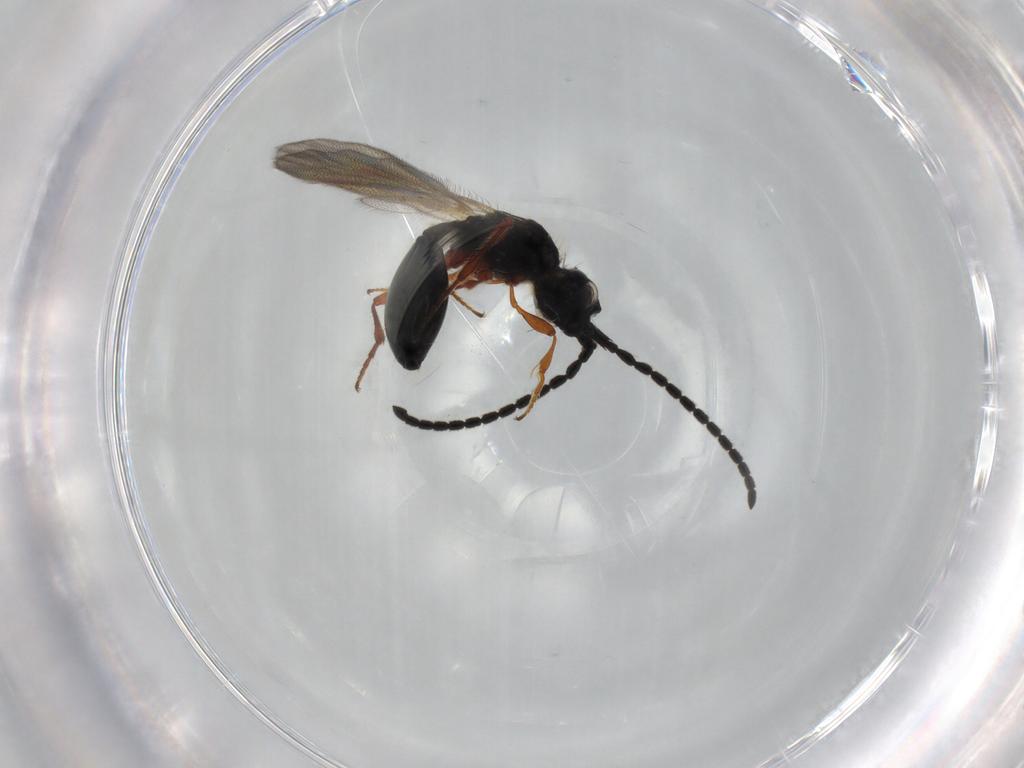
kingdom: Animalia
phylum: Arthropoda
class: Insecta
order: Hymenoptera
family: Diapriidae
